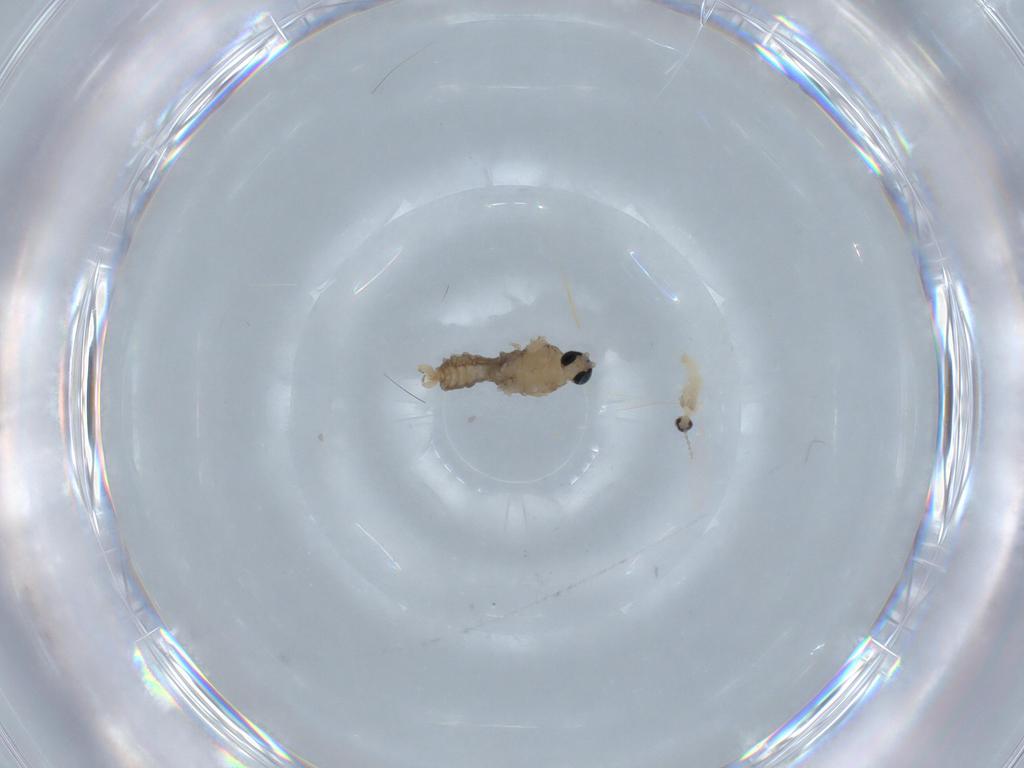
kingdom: Animalia
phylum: Arthropoda
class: Insecta
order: Diptera
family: Cecidomyiidae
